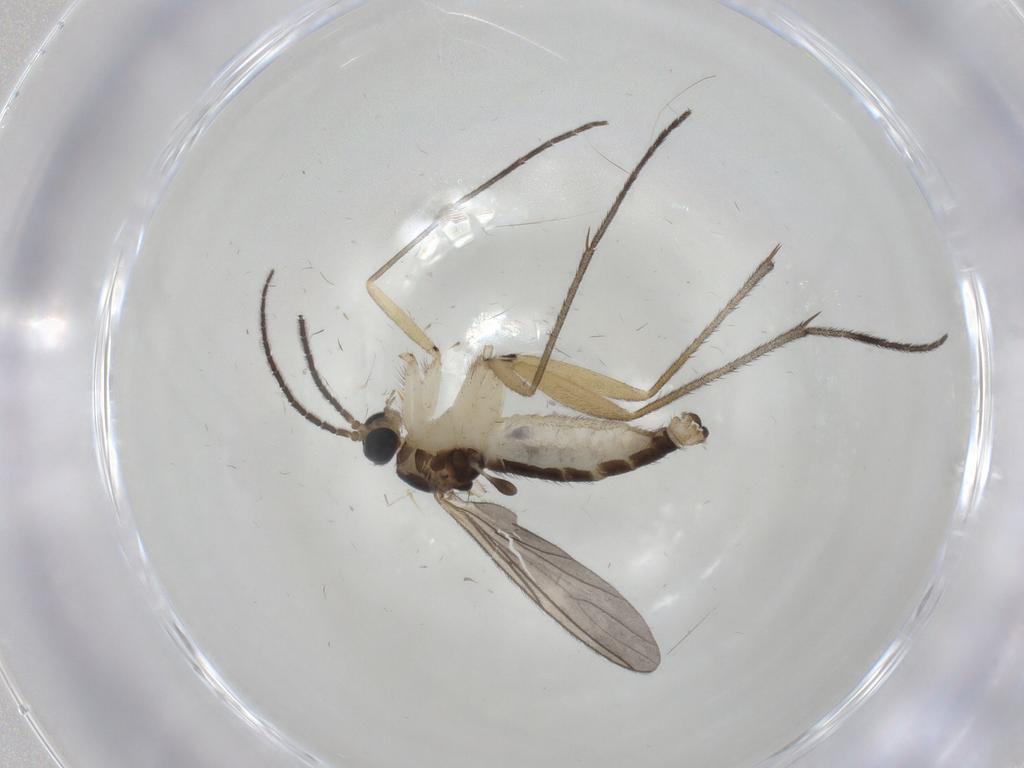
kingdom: Animalia
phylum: Arthropoda
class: Insecta
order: Diptera
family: Sciaridae
